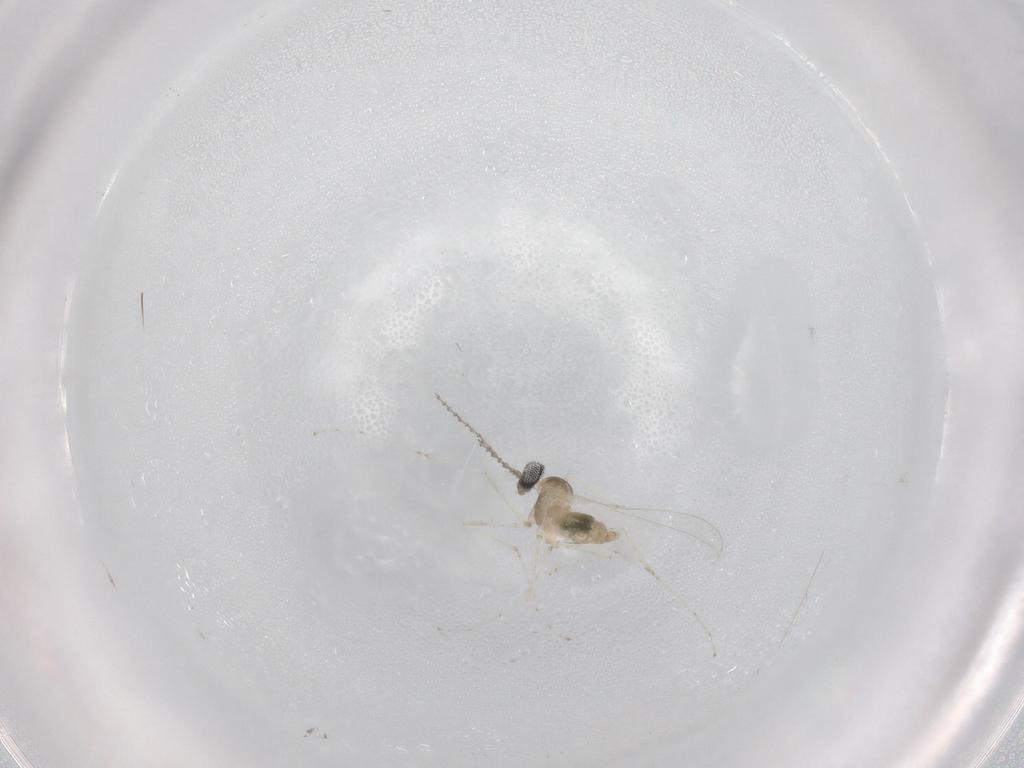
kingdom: Animalia
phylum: Arthropoda
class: Insecta
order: Diptera
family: Cecidomyiidae
